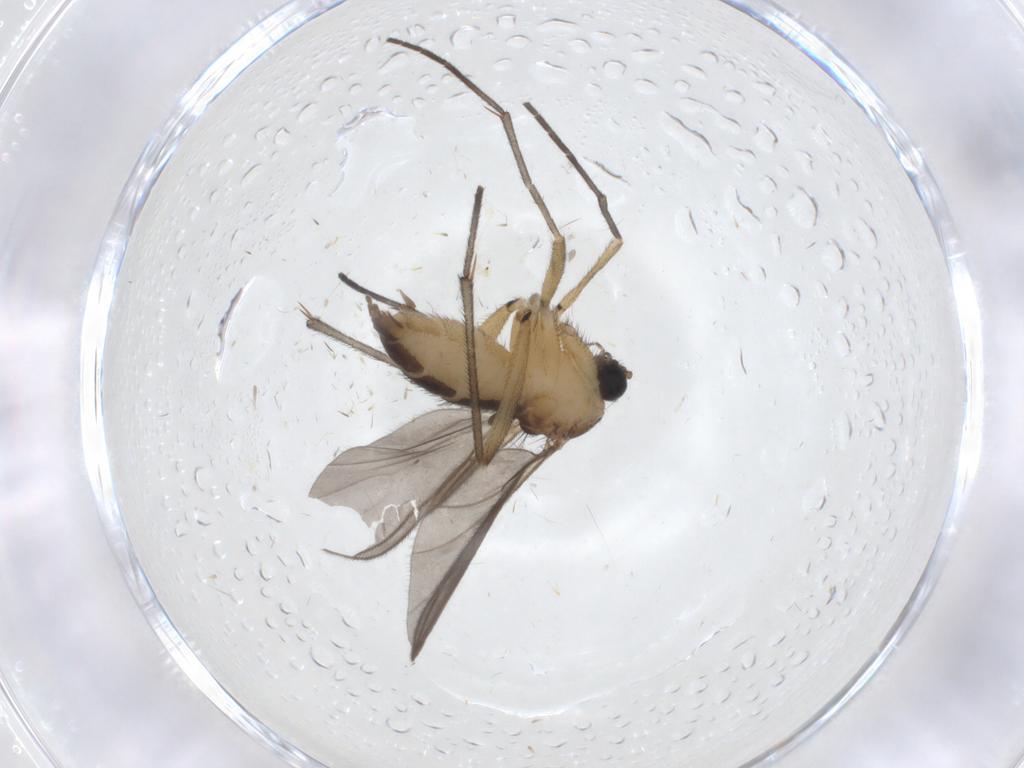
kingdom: Animalia
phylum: Arthropoda
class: Insecta
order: Diptera
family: Sciaridae
